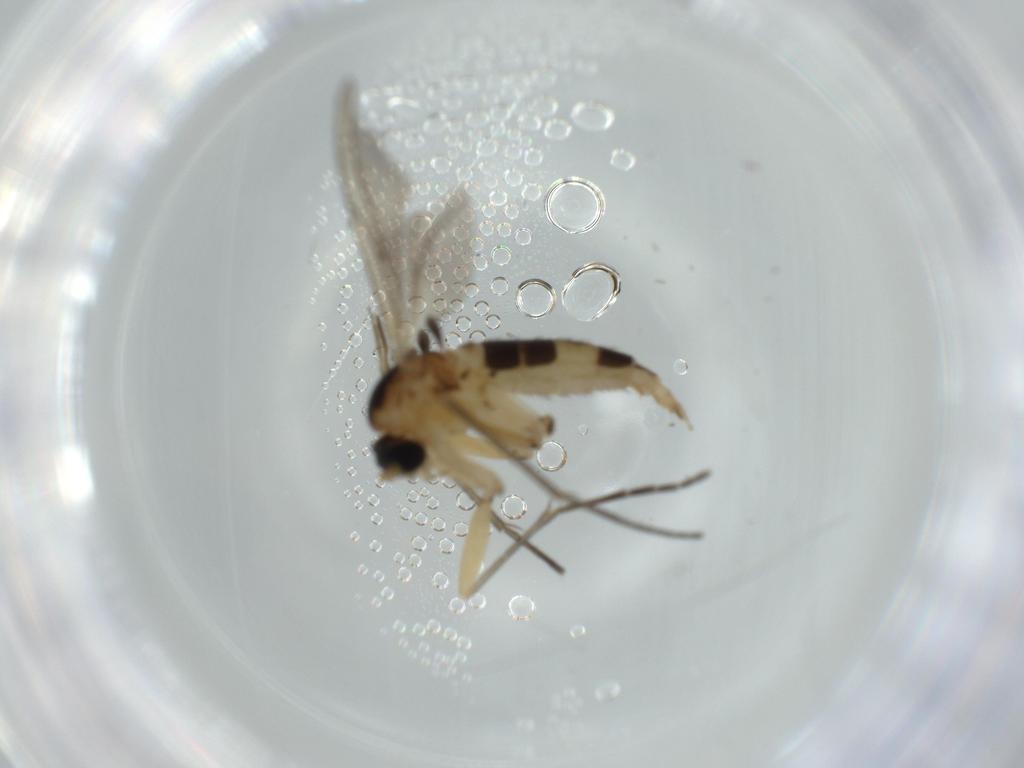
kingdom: Animalia
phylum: Arthropoda
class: Insecta
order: Diptera
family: Sciaridae
